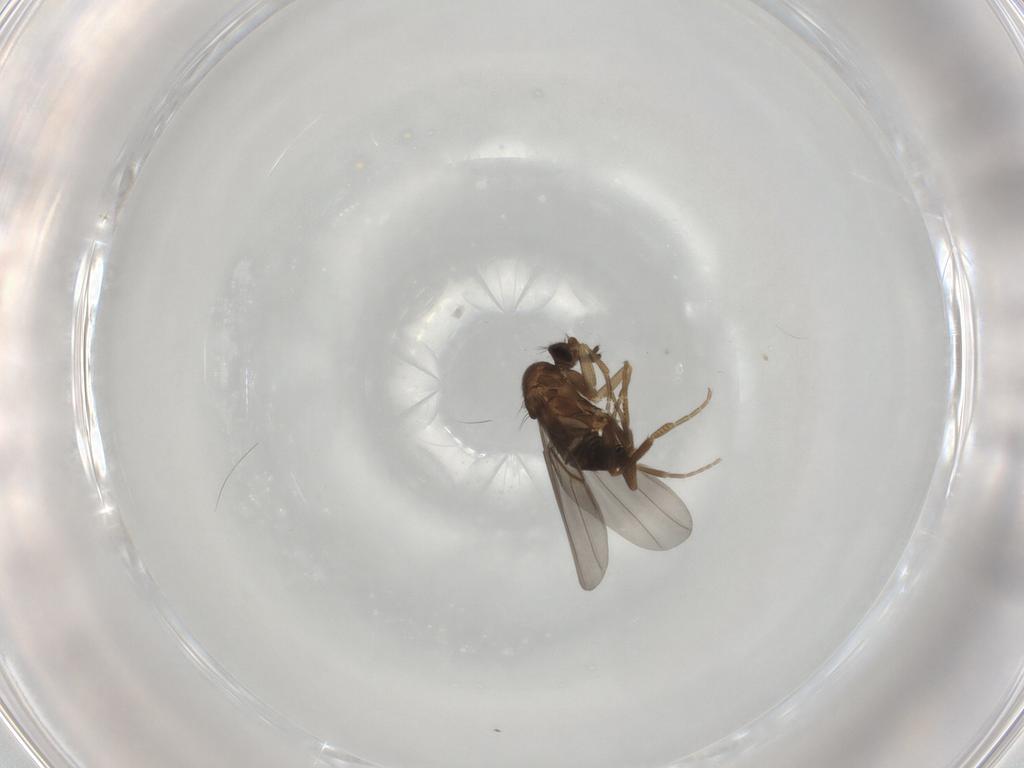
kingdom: Animalia
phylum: Arthropoda
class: Insecta
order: Diptera
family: Phoridae
